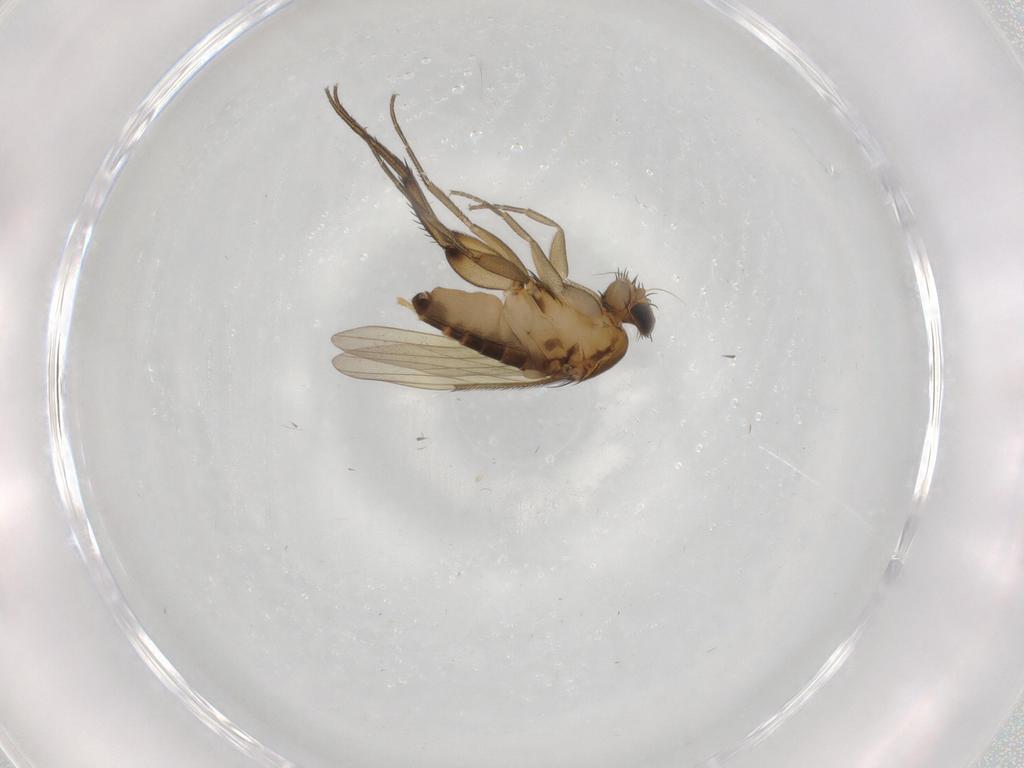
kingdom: Animalia
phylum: Arthropoda
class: Insecta
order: Diptera
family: Phoridae
